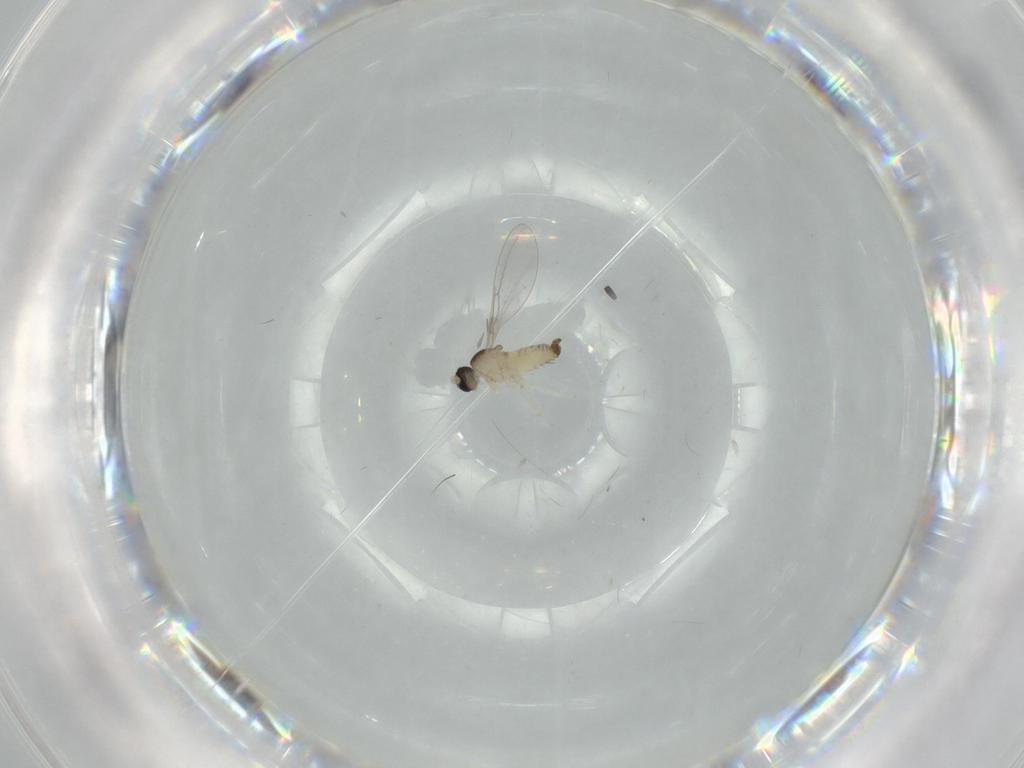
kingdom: Animalia
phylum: Arthropoda
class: Insecta
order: Diptera
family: Cecidomyiidae
